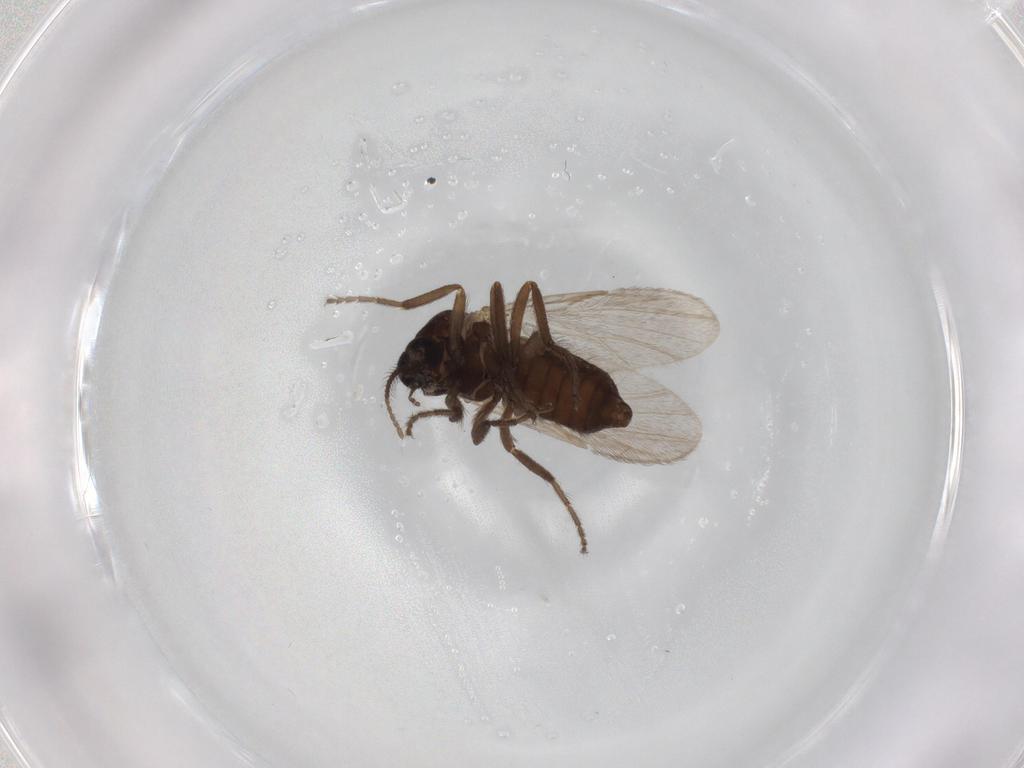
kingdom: Animalia
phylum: Arthropoda
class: Insecta
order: Diptera
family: Ceratopogonidae
